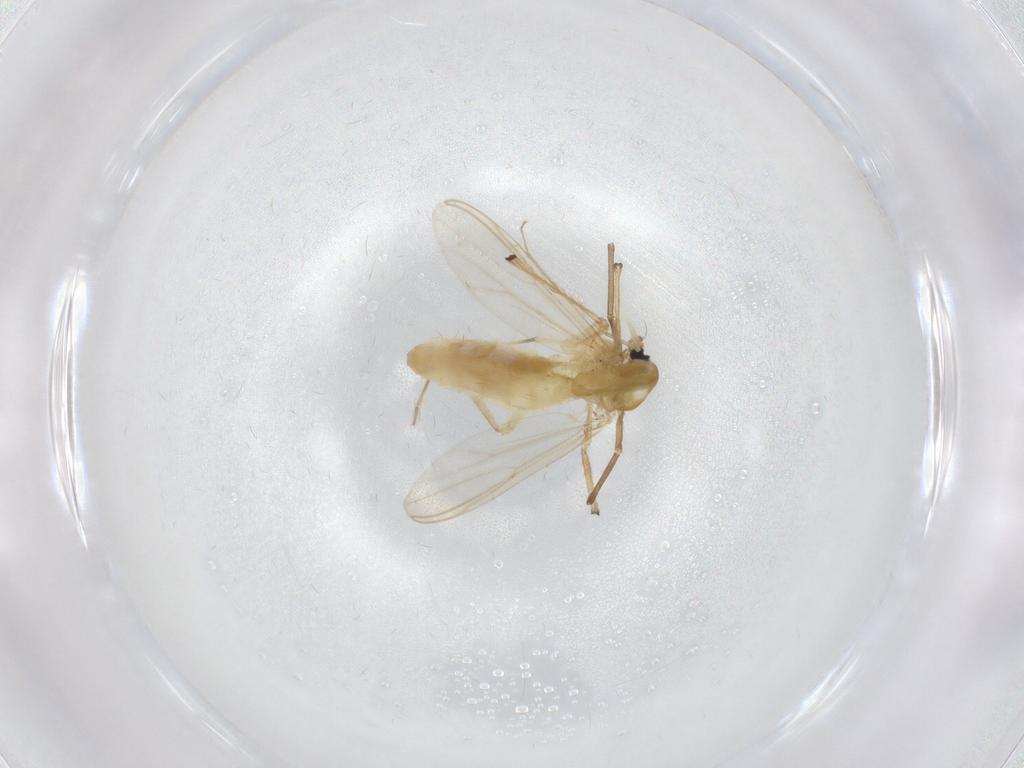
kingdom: Animalia
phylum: Arthropoda
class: Insecta
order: Diptera
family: Chironomidae
